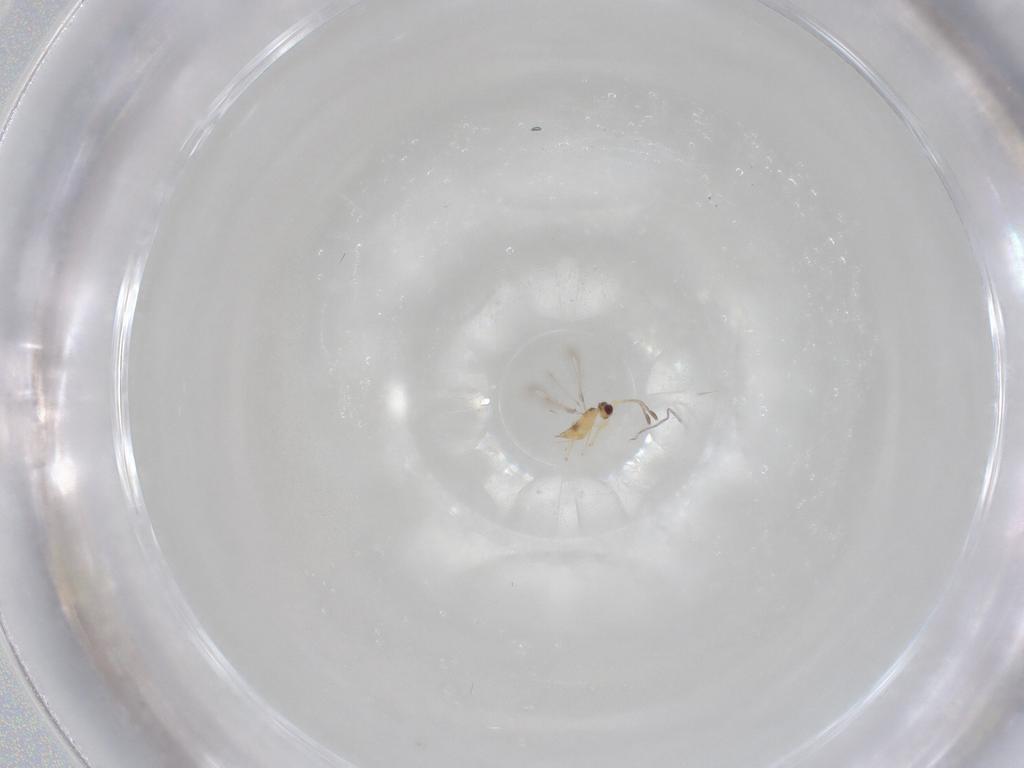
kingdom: Animalia
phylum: Arthropoda
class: Insecta
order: Hymenoptera
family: Mymaridae
